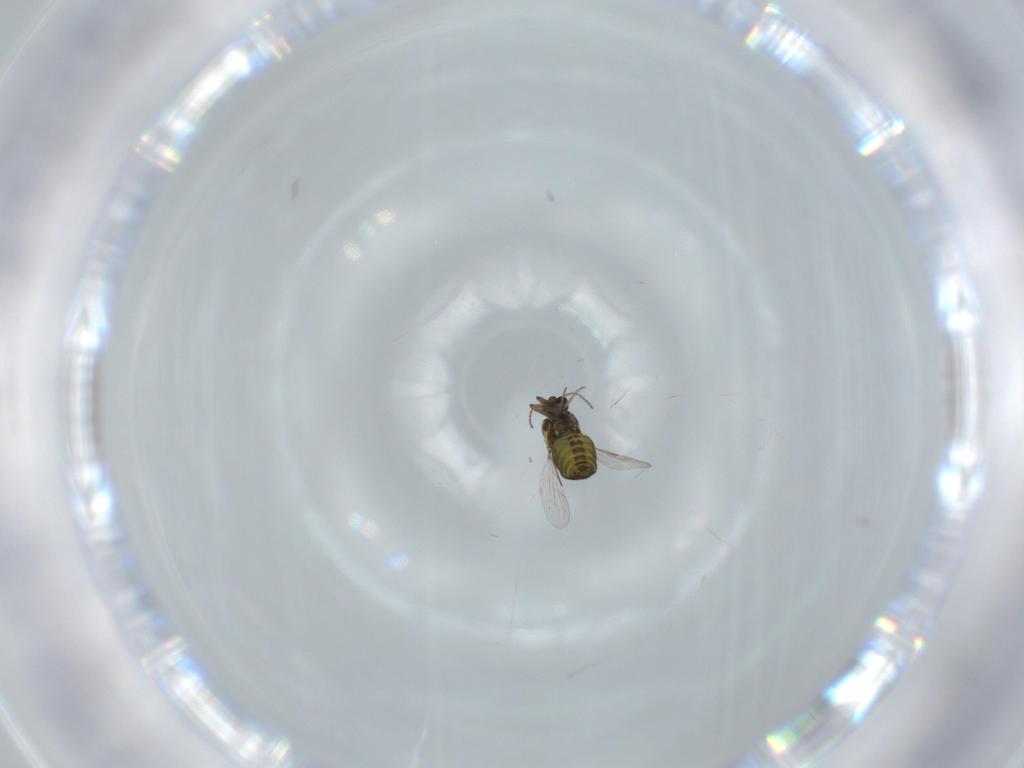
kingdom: Animalia
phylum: Arthropoda
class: Insecta
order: Diptera
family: Ceratopogonidae
